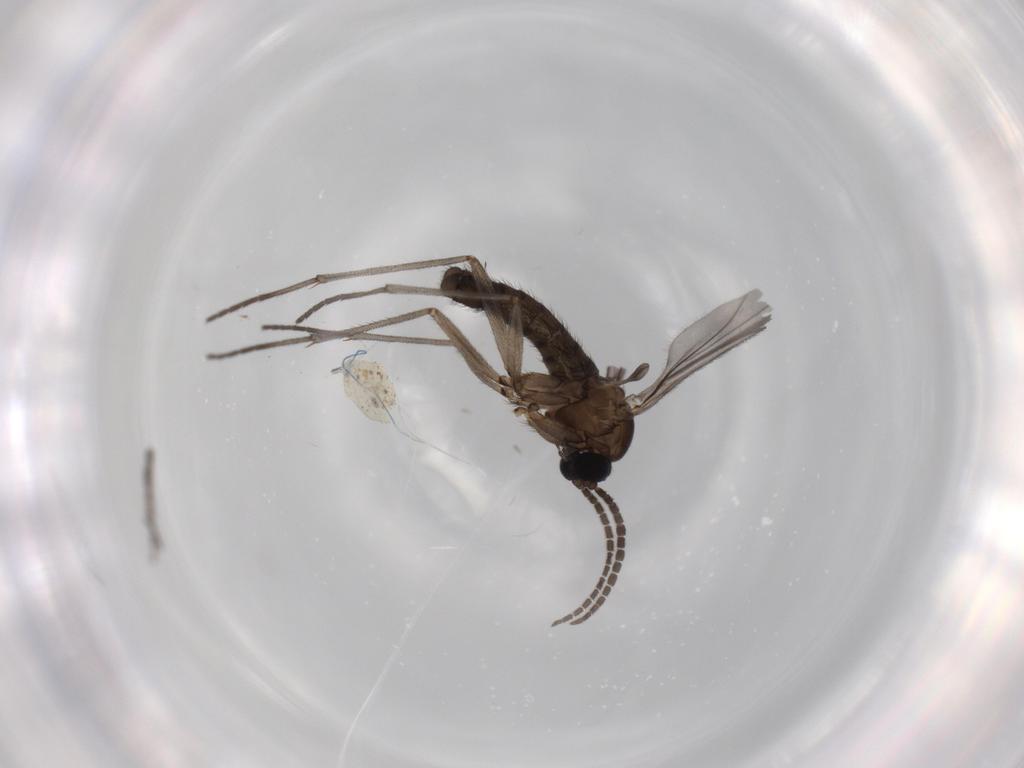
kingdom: Animalia
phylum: Arthropoda
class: Insecta
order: Diptera
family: Sciaridae
